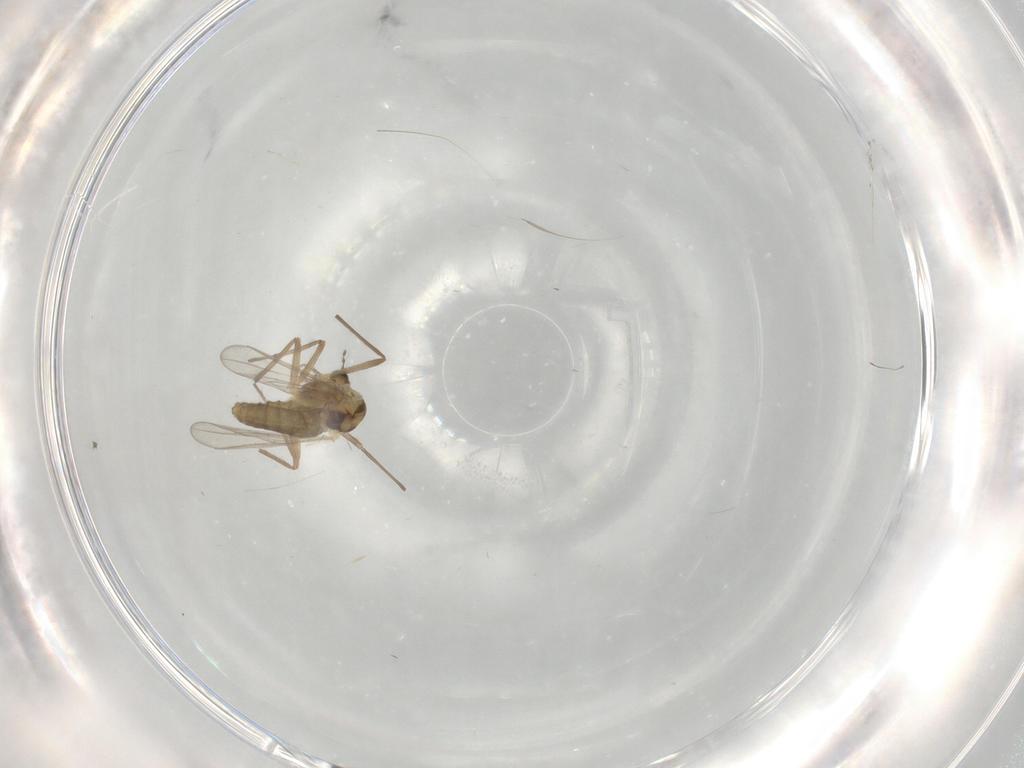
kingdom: Animalia
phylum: Arthropoda
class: Insecta
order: Diptera
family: Chironomidae
